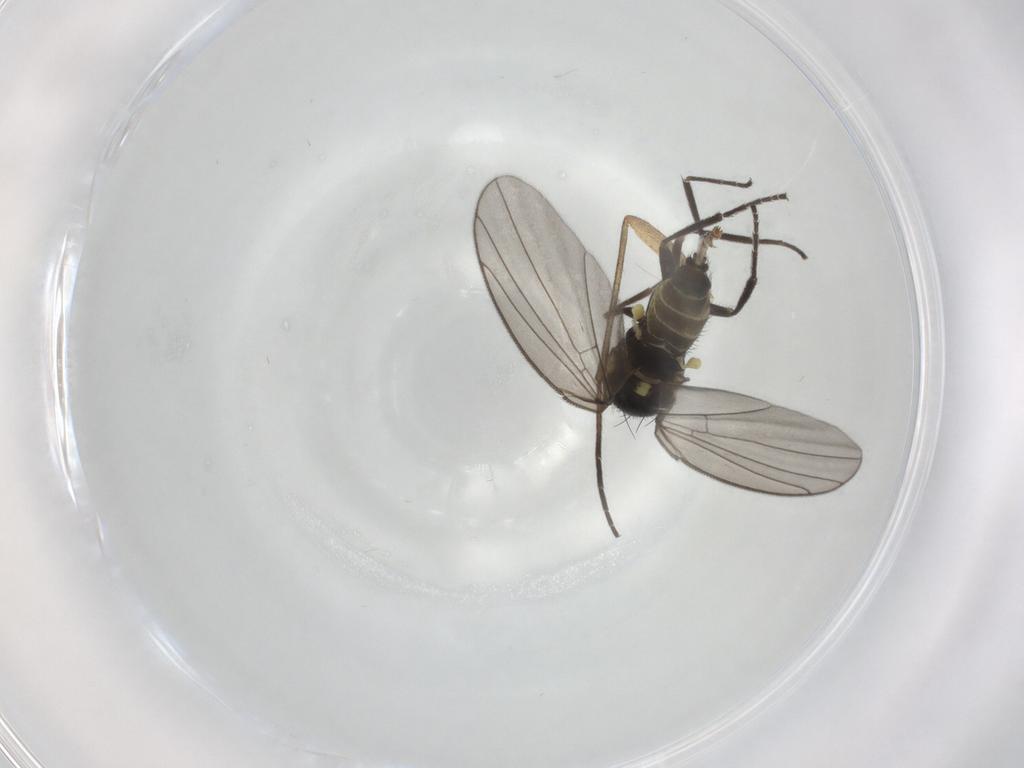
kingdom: Animalia
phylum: Arthropoda
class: Insecta
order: Diptera
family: Agromyzidae
